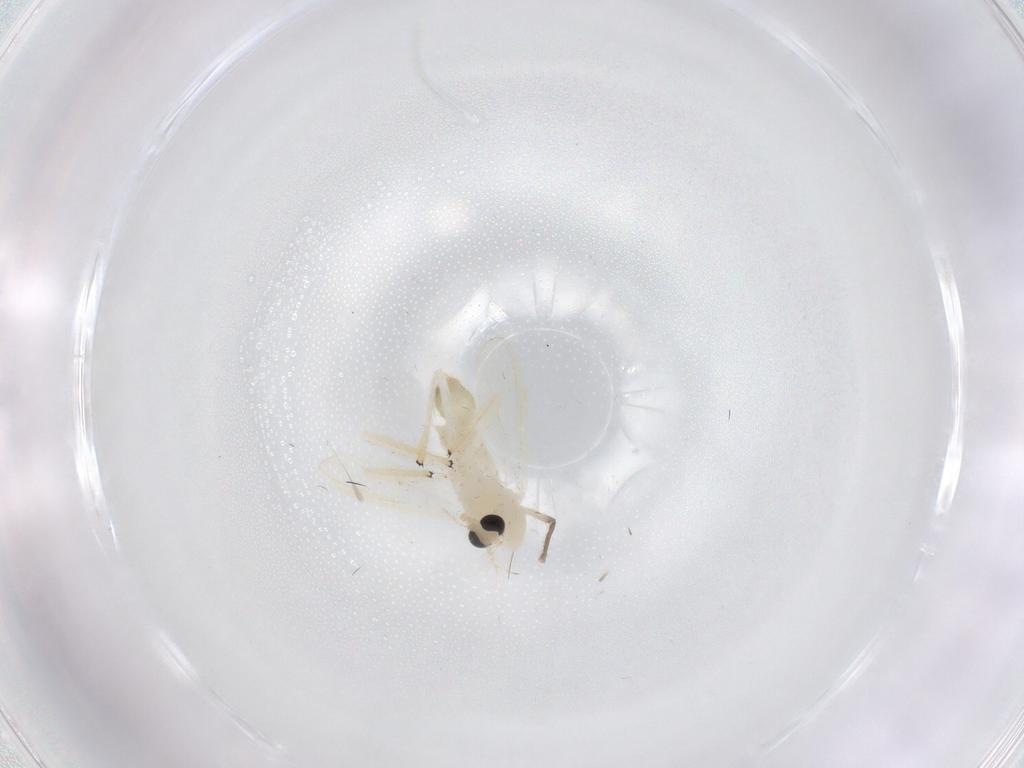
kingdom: Animalia
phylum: Arthropoda
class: Insecta
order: Diptera
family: Chironomidae
